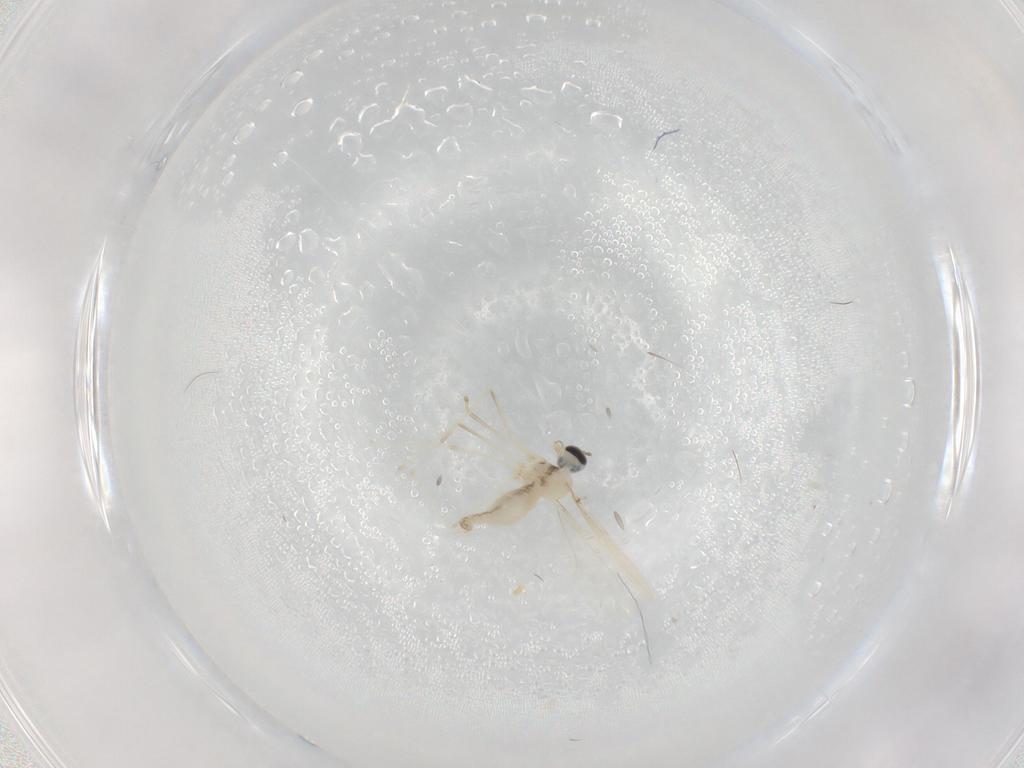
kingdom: Animalia
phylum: Arthropoda
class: Insecta
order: Diptera
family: Cecidomyiidae
